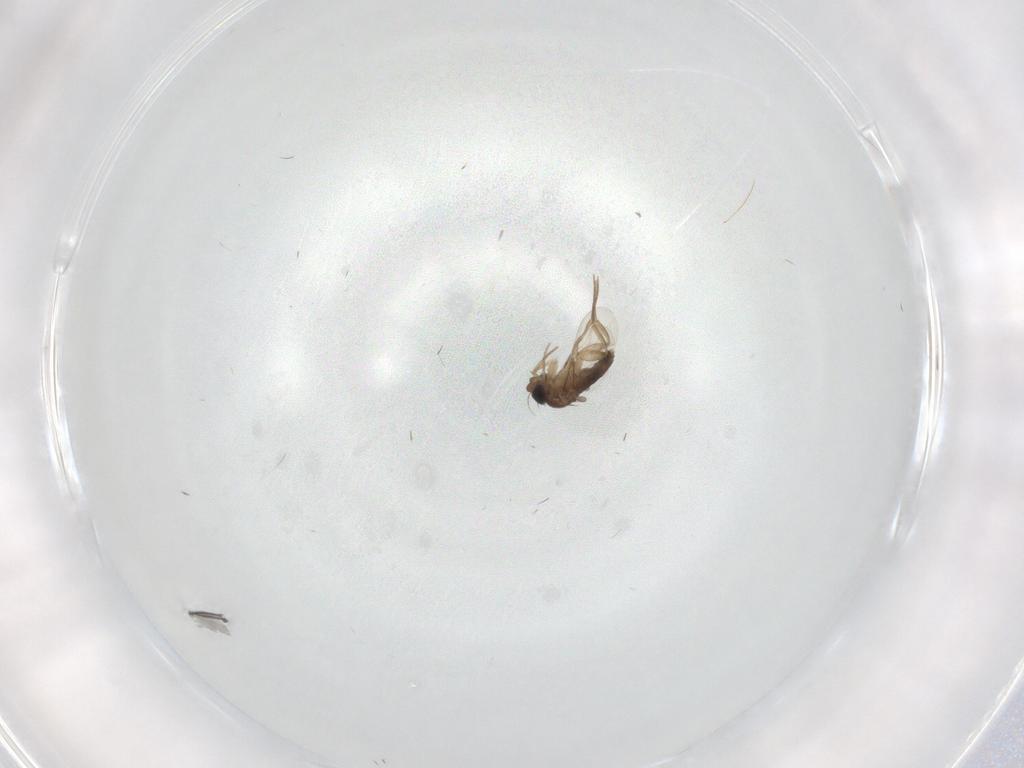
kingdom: Animalia
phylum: Arthropoda
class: Insecta
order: Diptera
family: Phoridae
